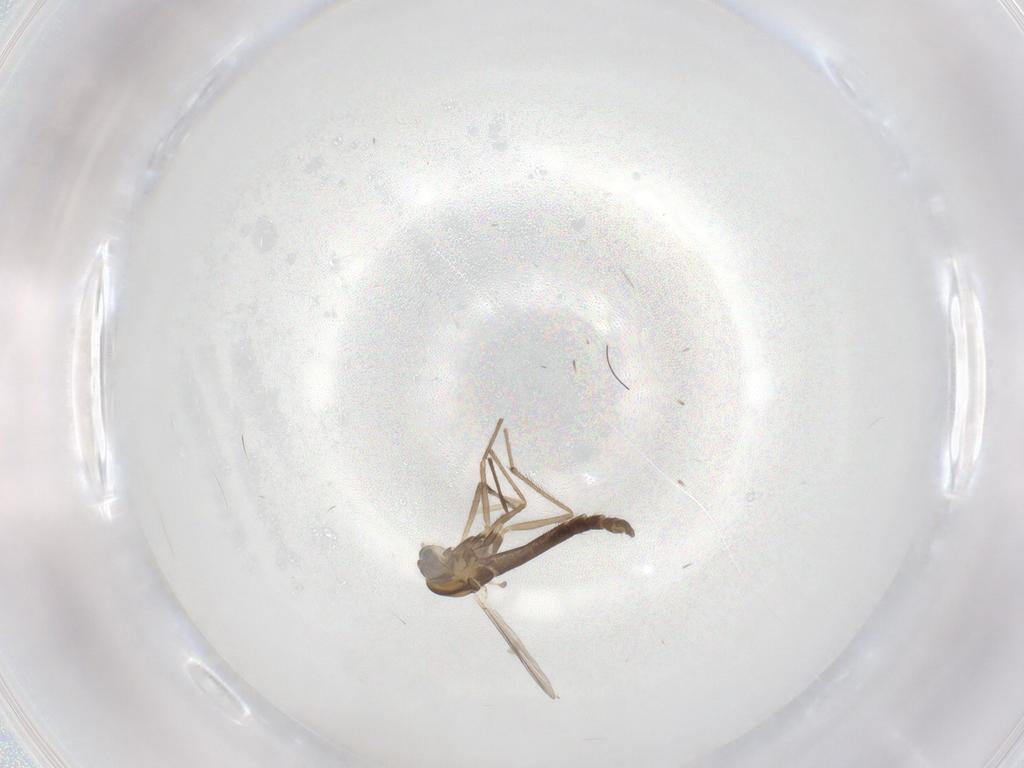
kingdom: Animalia
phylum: Arthropoda
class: Insecta
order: Diptera
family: Chironomidae
